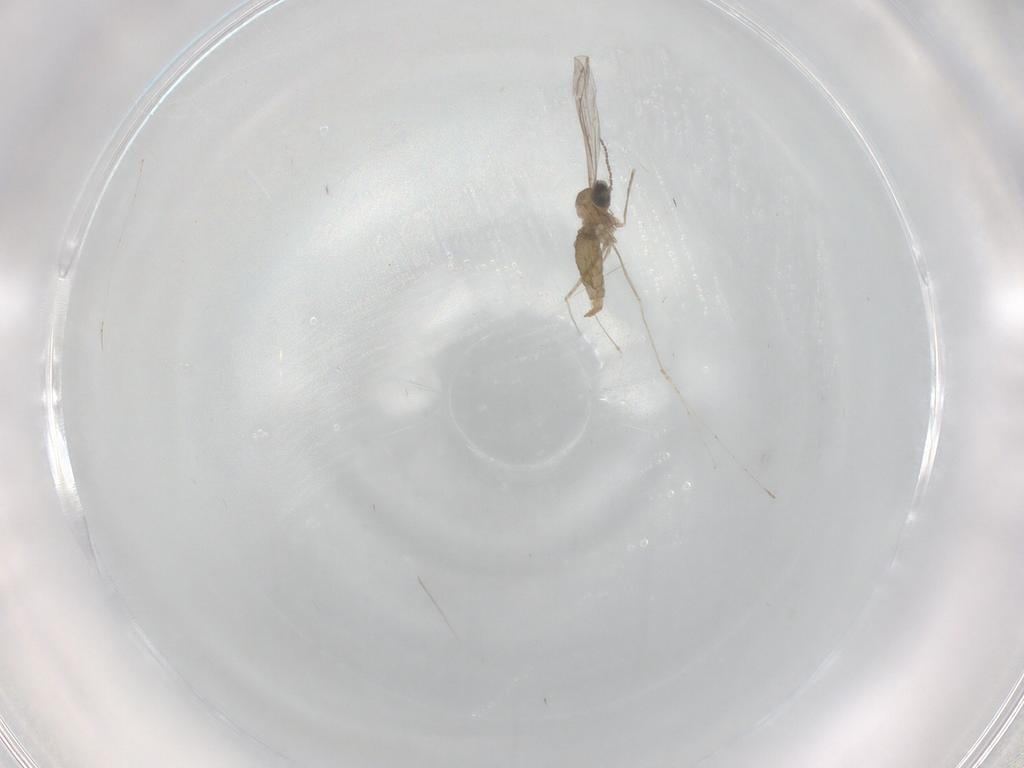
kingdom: Animalia
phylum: Arthropoda
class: Insecta
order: Diptera
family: Cecidomyiidae
